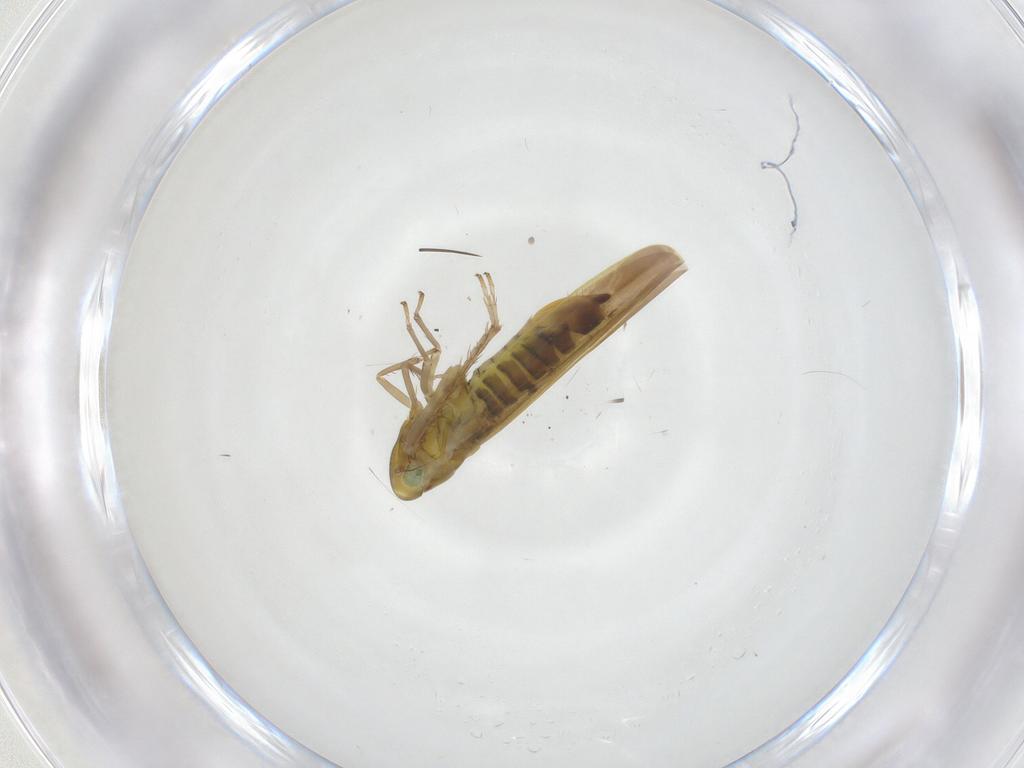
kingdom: Animalia
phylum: Arthropoda
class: Insecta
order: Hemiptera
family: Cicadellidae
